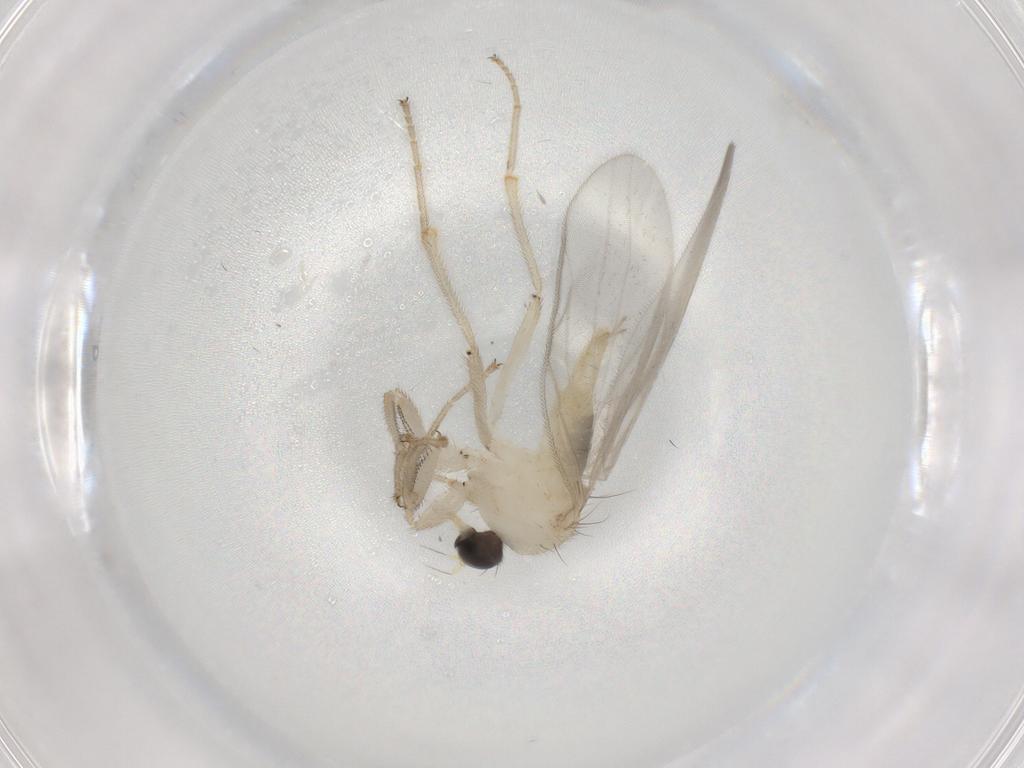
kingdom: Animalia
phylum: Arthropoda
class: Insecta
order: Diptera
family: Hybotidae
